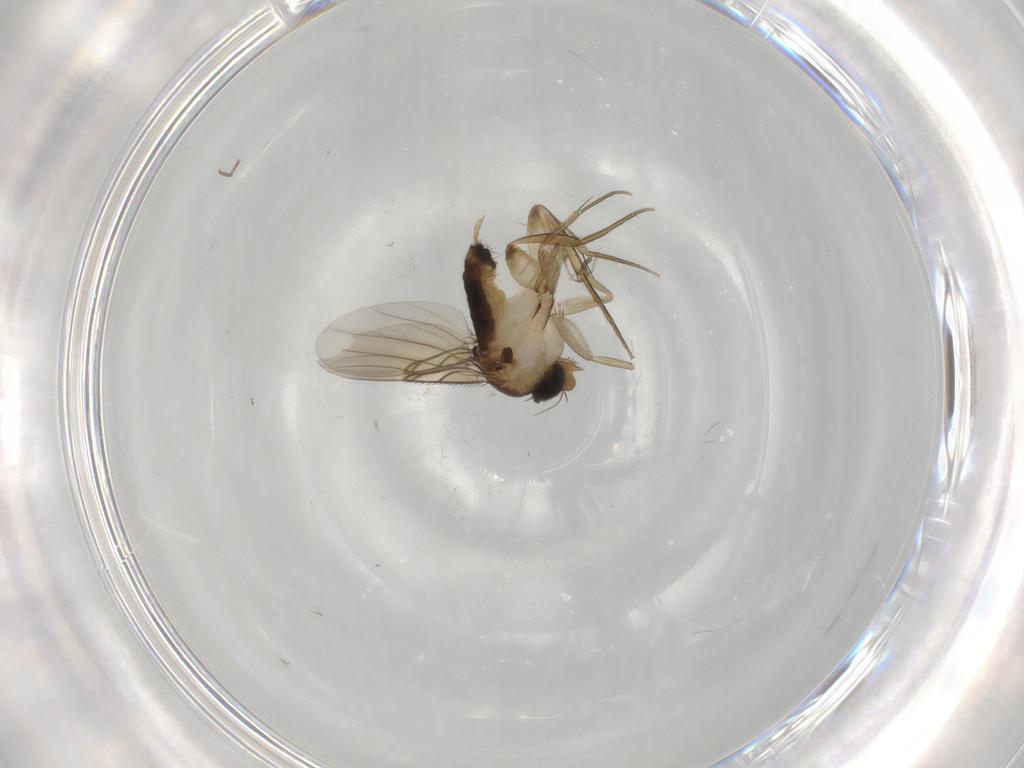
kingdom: Animalia
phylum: Arthropoda
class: Insecta
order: Diptera
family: Phoridae
